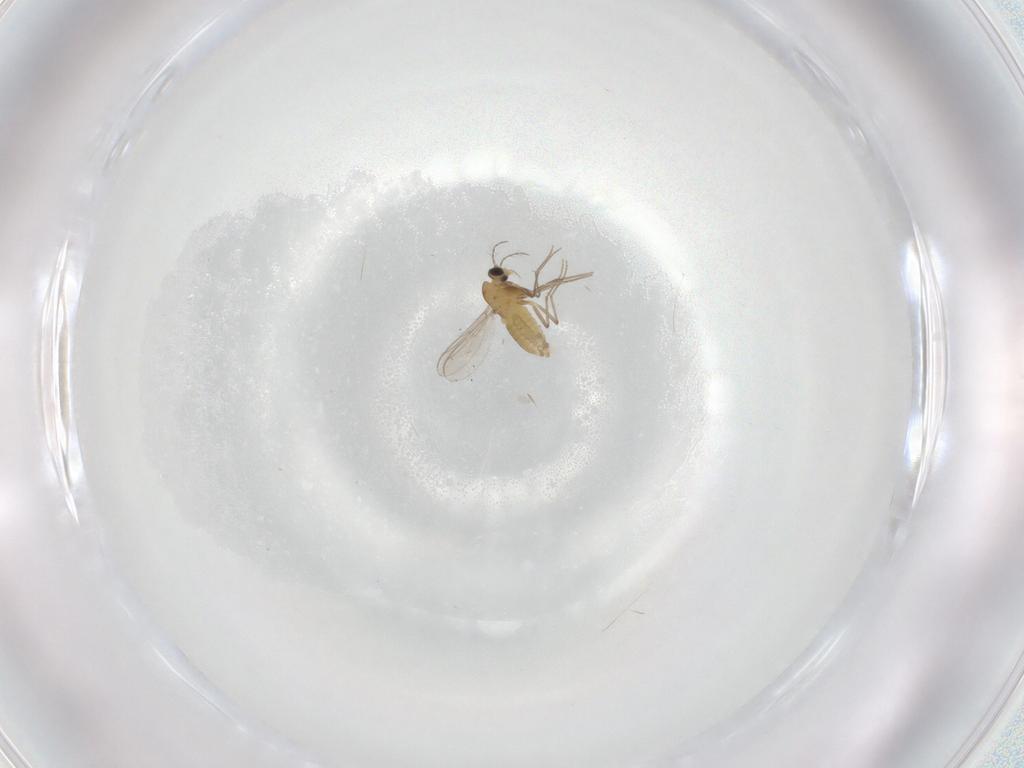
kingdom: Animalia
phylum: Arthropoda
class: Insecta
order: Diptera
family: Chironomidae
